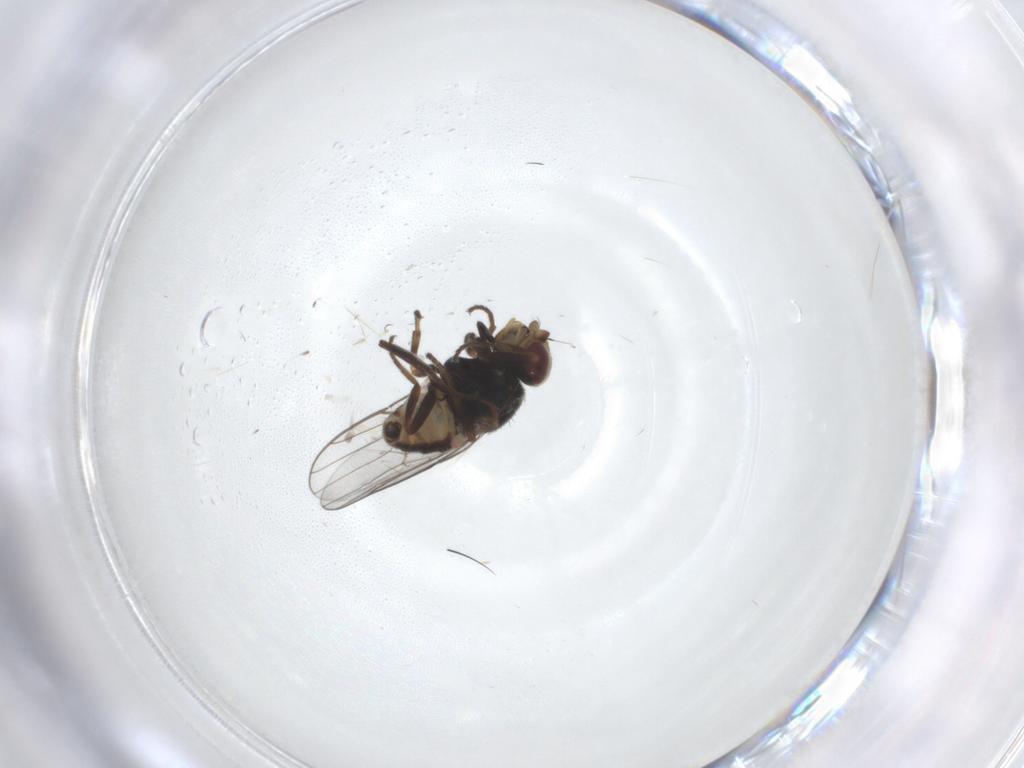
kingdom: Animalia
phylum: Arthropoda
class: Insecta
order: Diptera
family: Chloropidae
